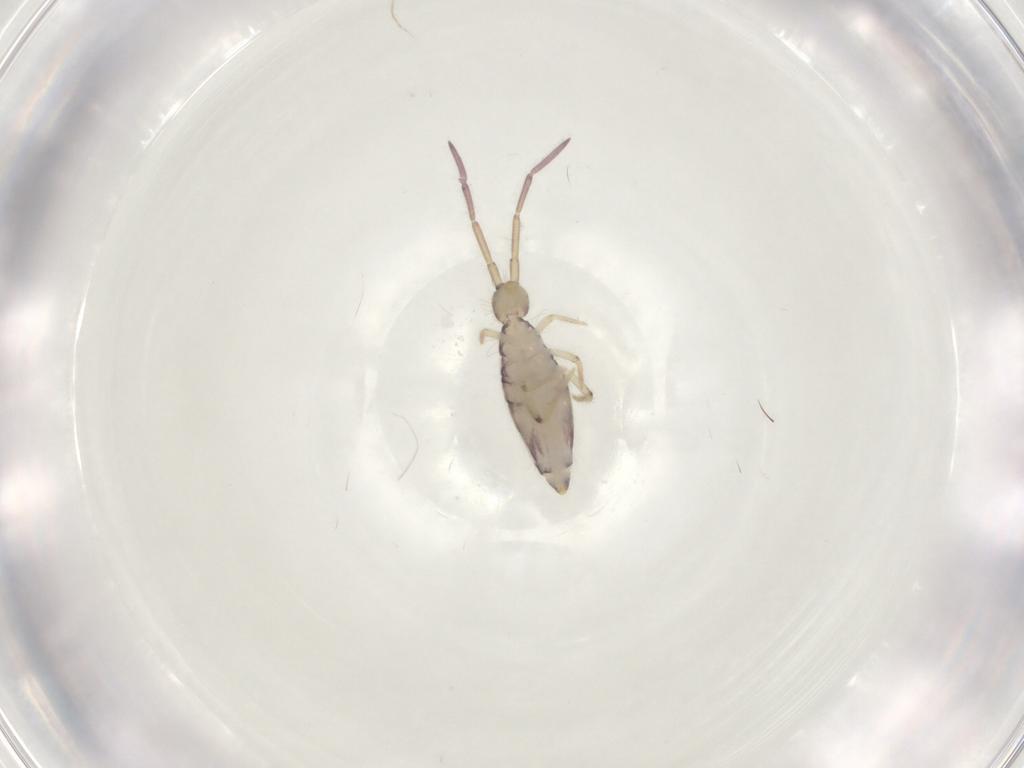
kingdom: Animalia
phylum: Arthropoda
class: Collembola
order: Entomobryomorpha
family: Entomobryidae
